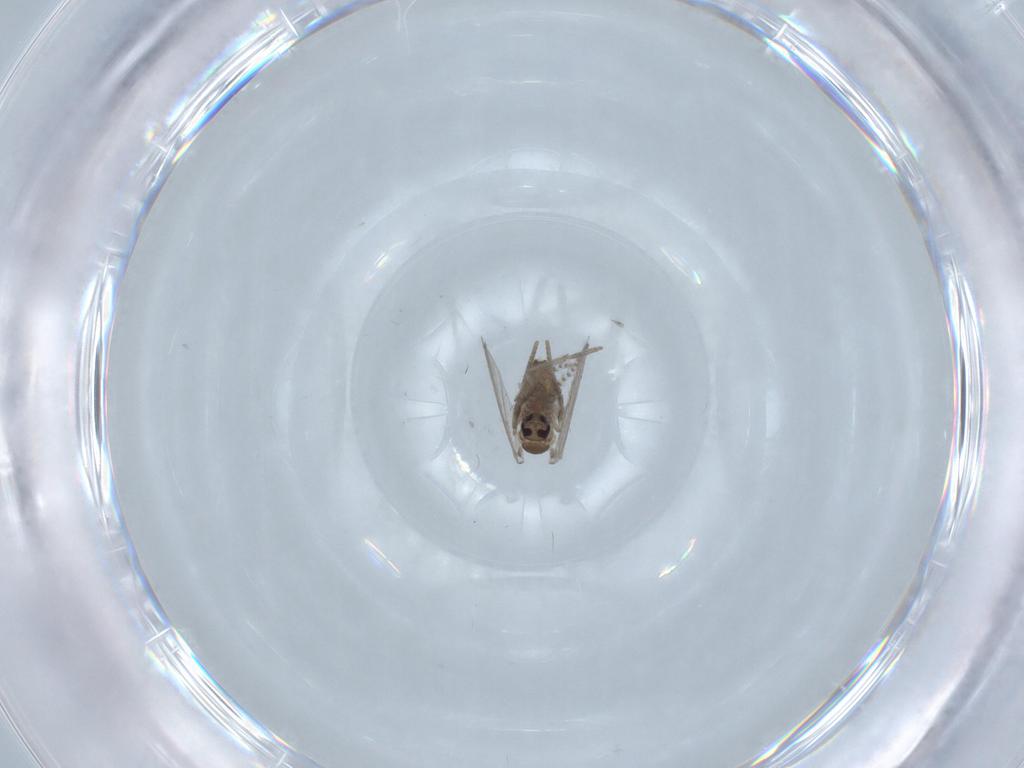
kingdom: Animalia
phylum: Arthropoda
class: Insecta
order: Diptera
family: Psychodidae
